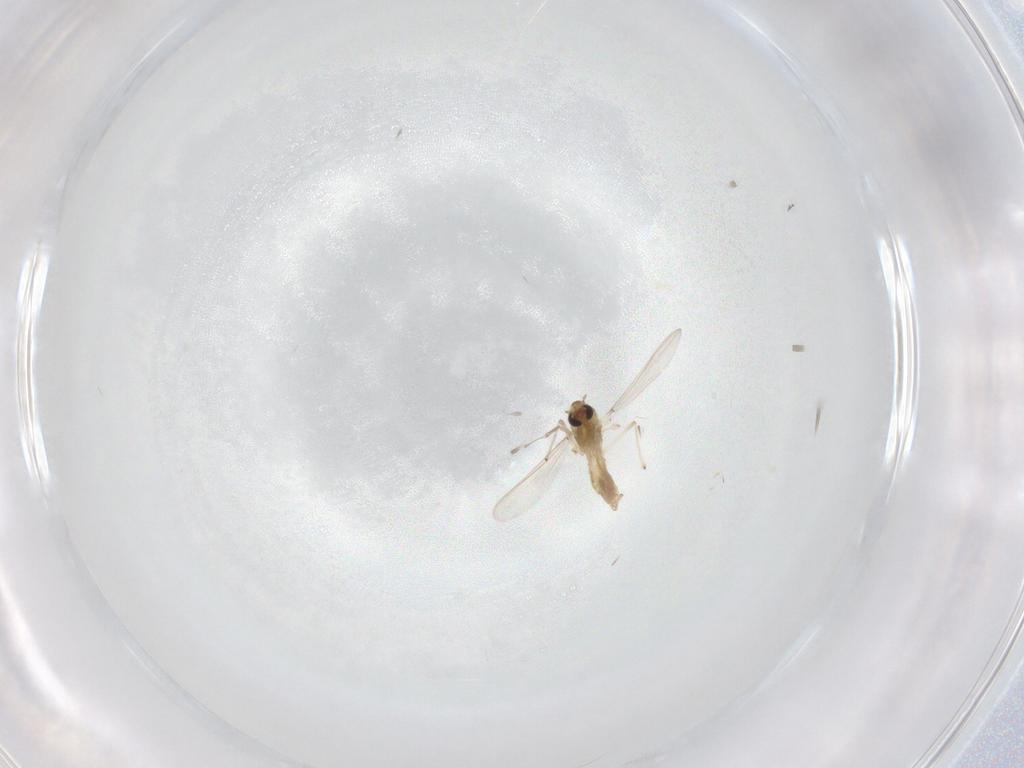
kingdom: Animalia
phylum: Arthropoda
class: Insecta
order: Diptera
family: Chironomidae
